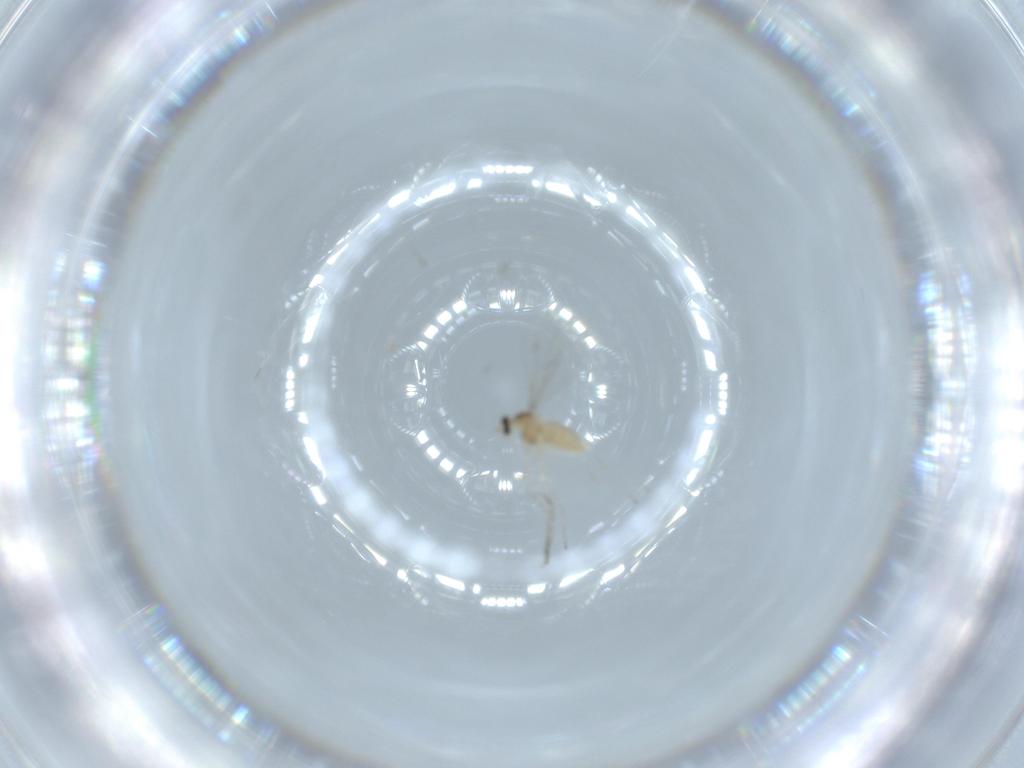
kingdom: Animalia
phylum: Arthropoda
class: Insecta
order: Diptera
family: Cecidomyiidae
